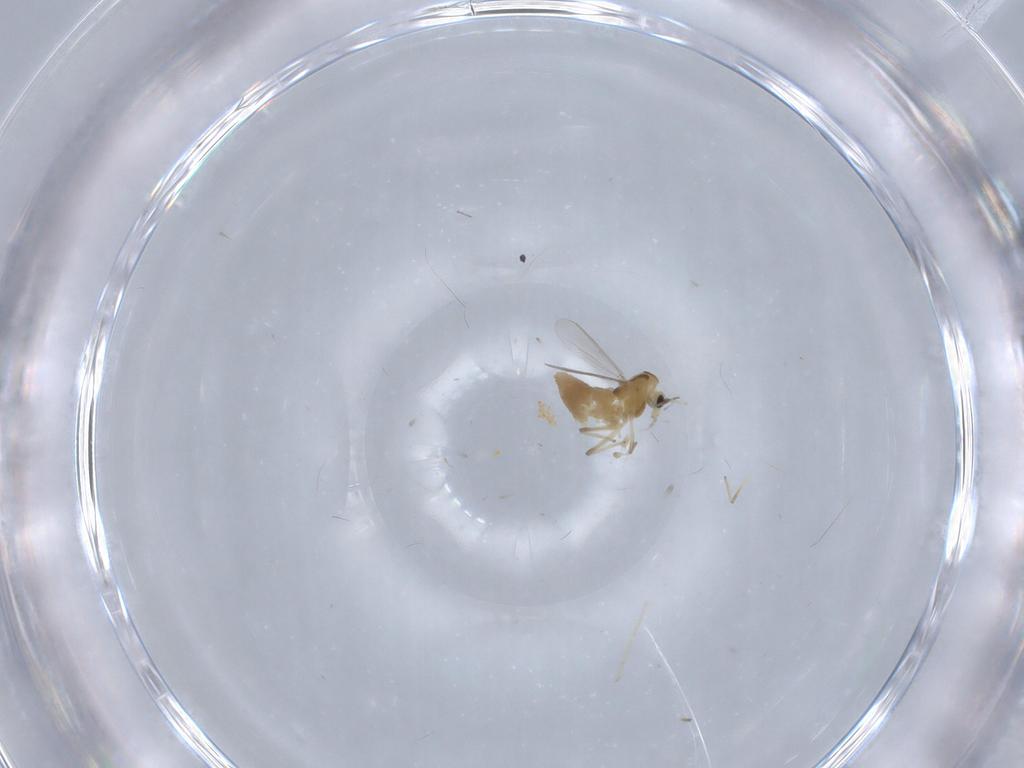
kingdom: Animalia
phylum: Arthropoda
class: Insecta
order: Diptera
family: Chironomidae
